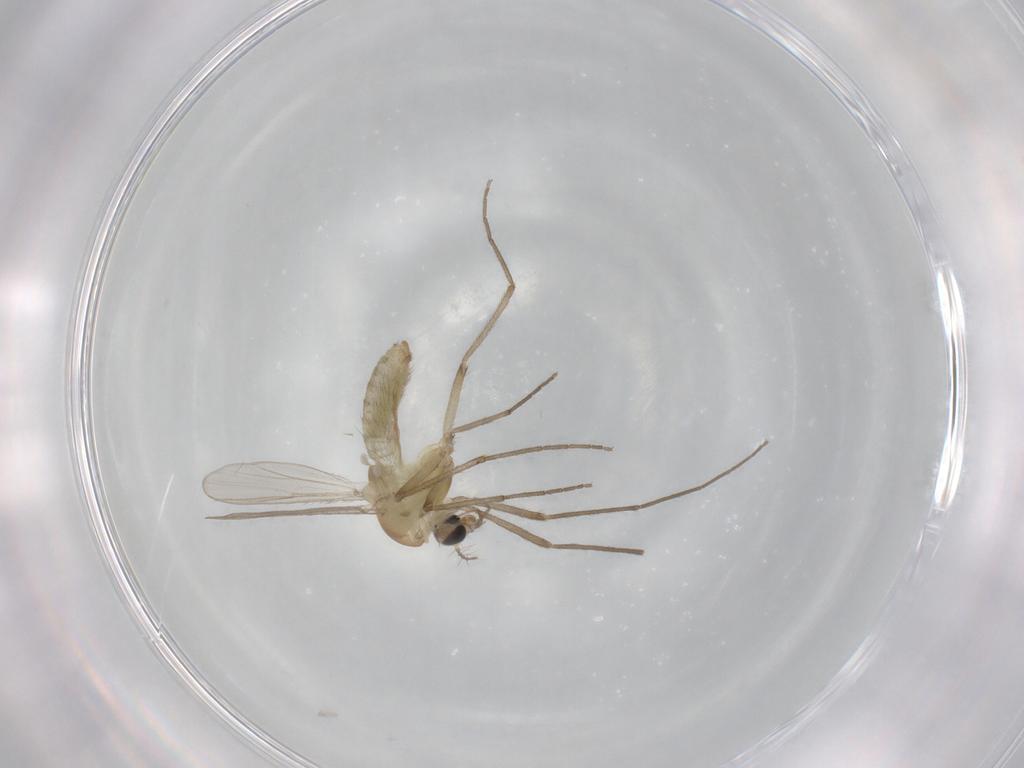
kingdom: Animalia
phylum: Arthropoda
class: Insecta
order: Diptera
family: Chironomidae
